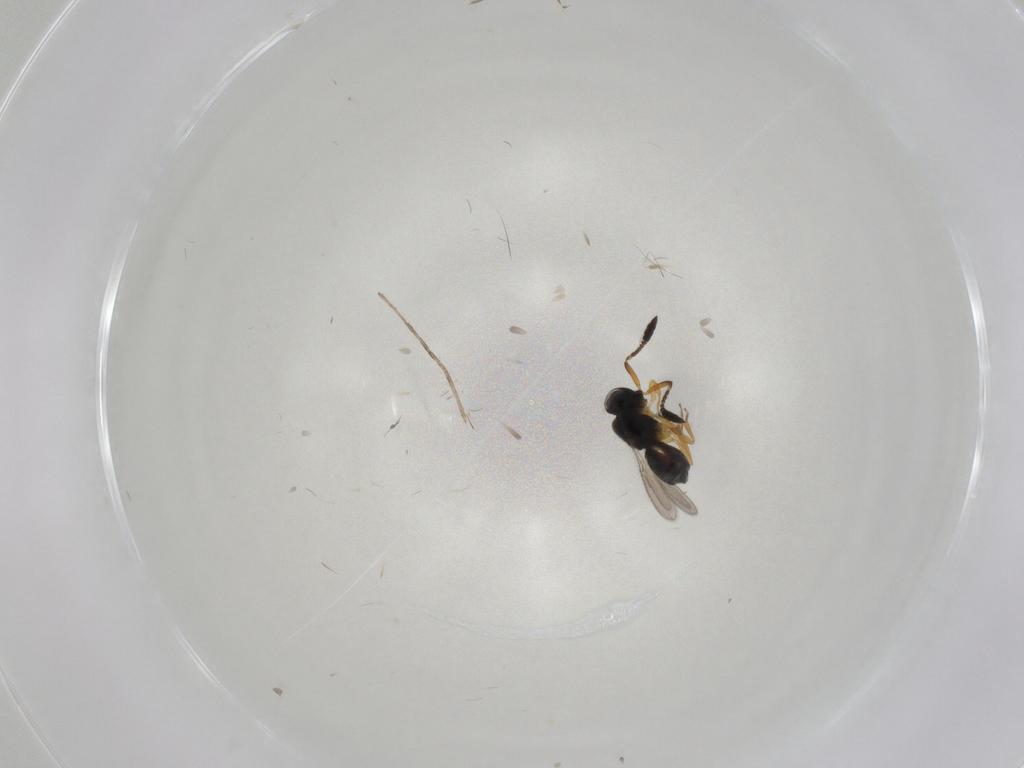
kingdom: Animalia
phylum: Arthropoda
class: Insecta
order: Hymenoptera
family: Scelionidae
